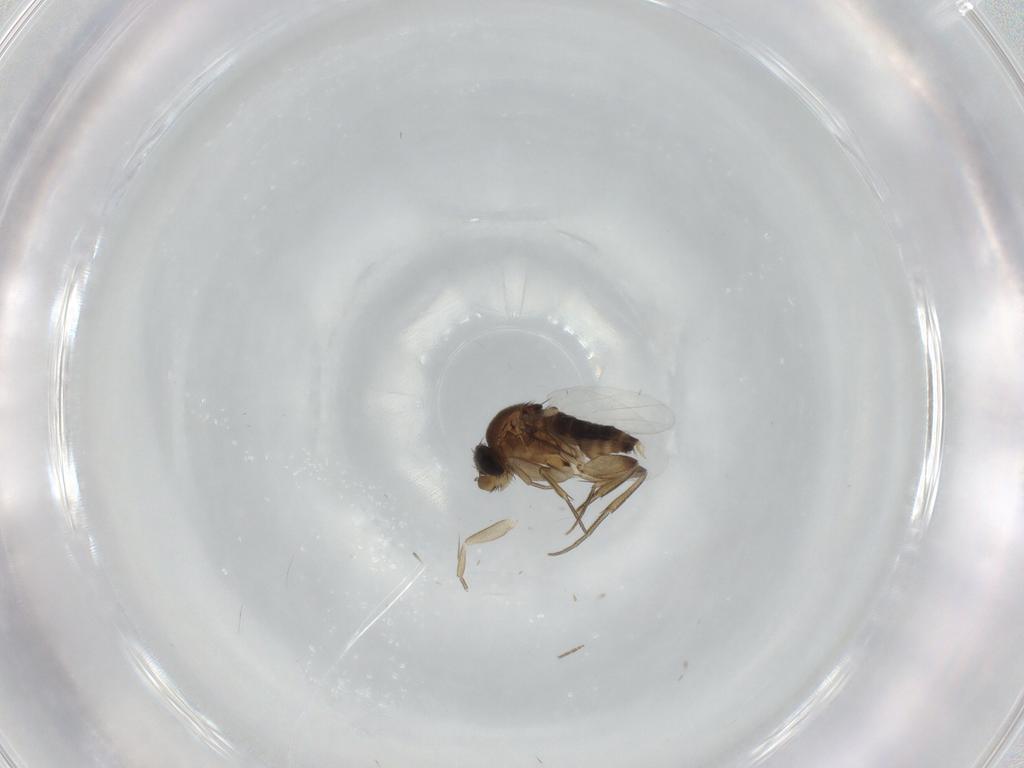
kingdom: Animalia
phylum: Arthropoda
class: Insecta
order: Diptera
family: Phoridae
